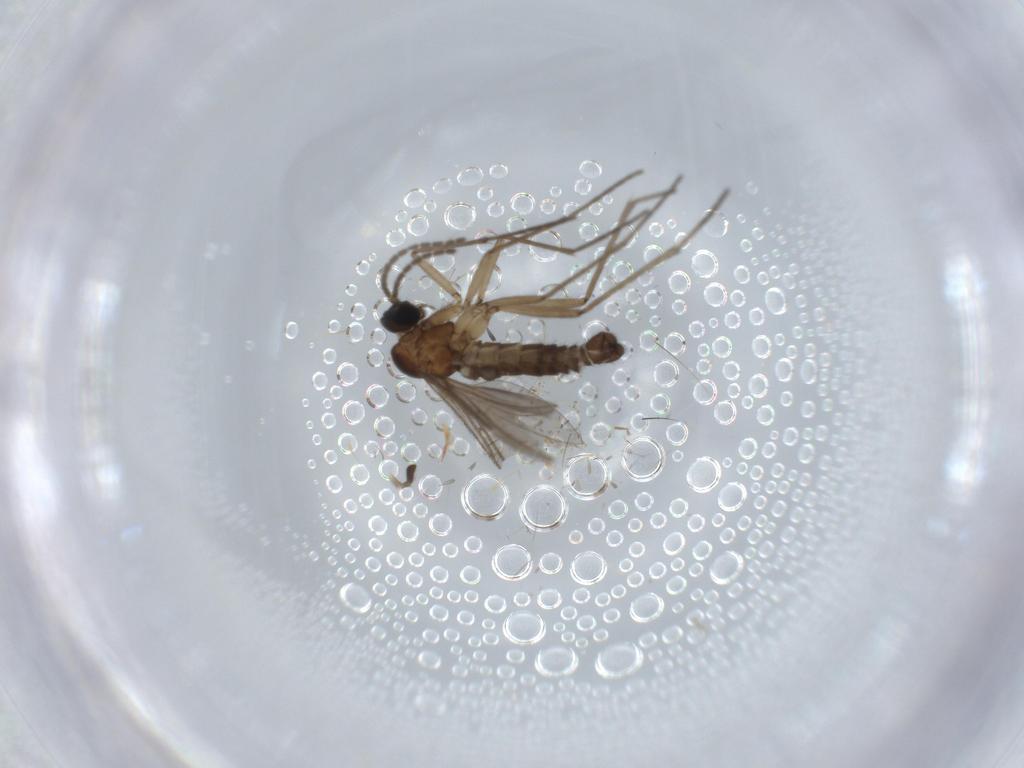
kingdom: Animalia
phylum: Arthropoda
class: Insecta
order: Diptera
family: Ceratopogonidae
